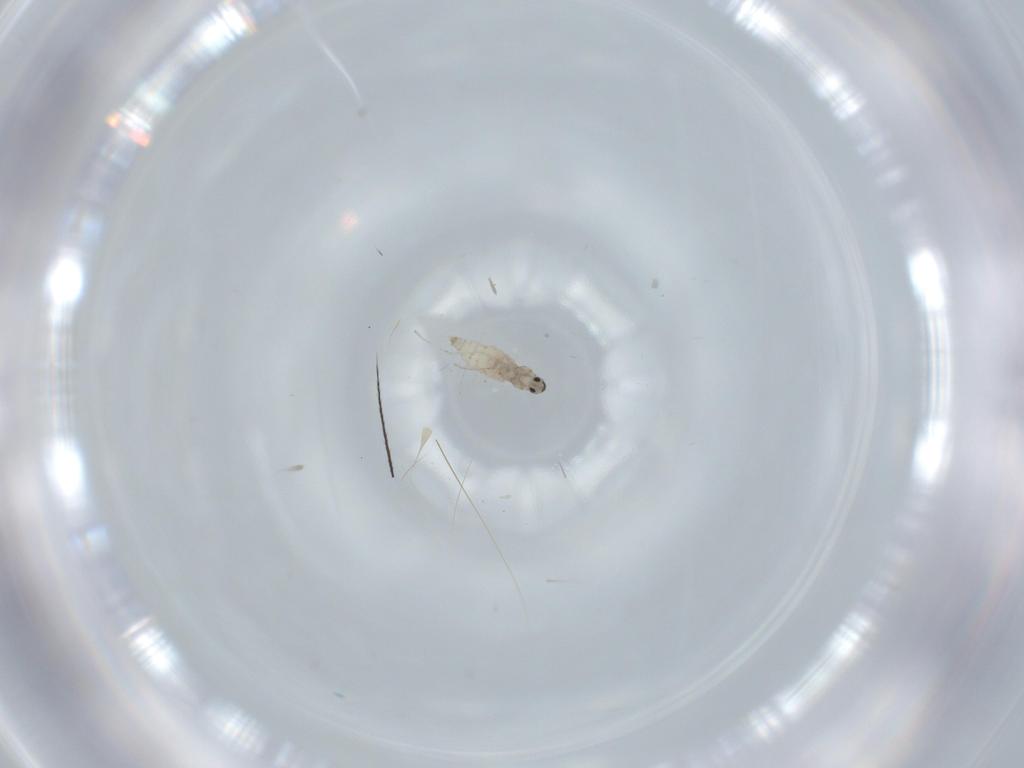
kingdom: Animalia
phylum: Arthropoda
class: Insecta
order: Diptera
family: Cecidomyiidae
